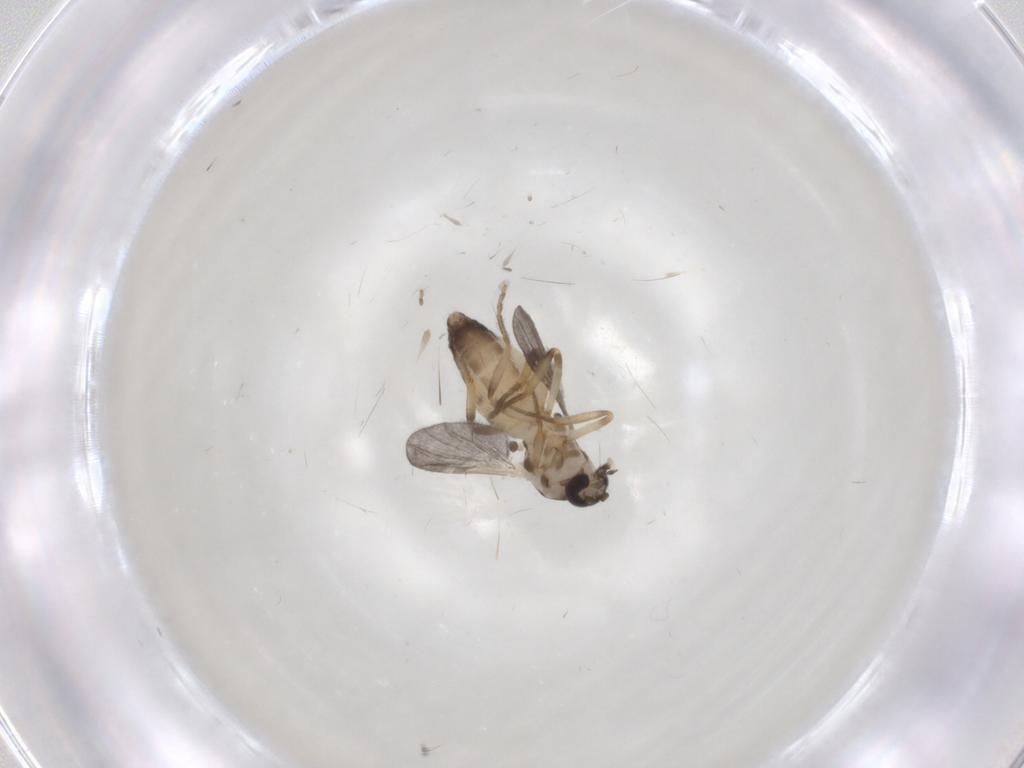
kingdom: Animalia
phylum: Arthropoda
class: Insecta
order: Diptera
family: Ceratopogonidae
